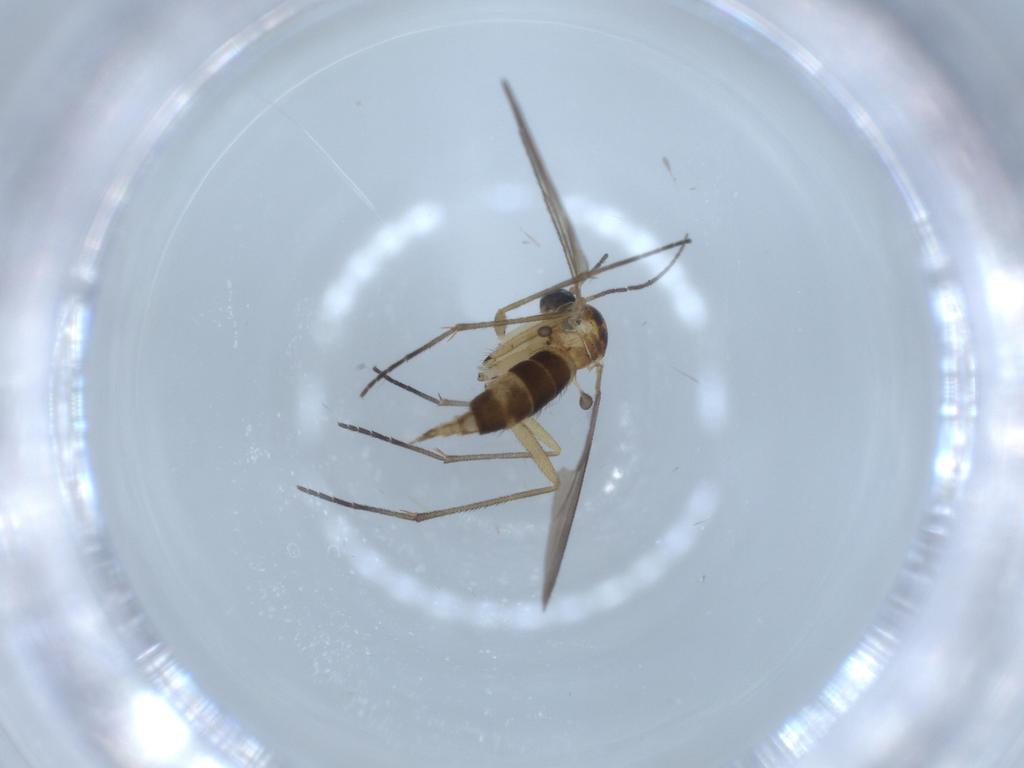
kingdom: Animalia
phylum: Arthropoda
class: Insecta
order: Diptera
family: Sciaridae
